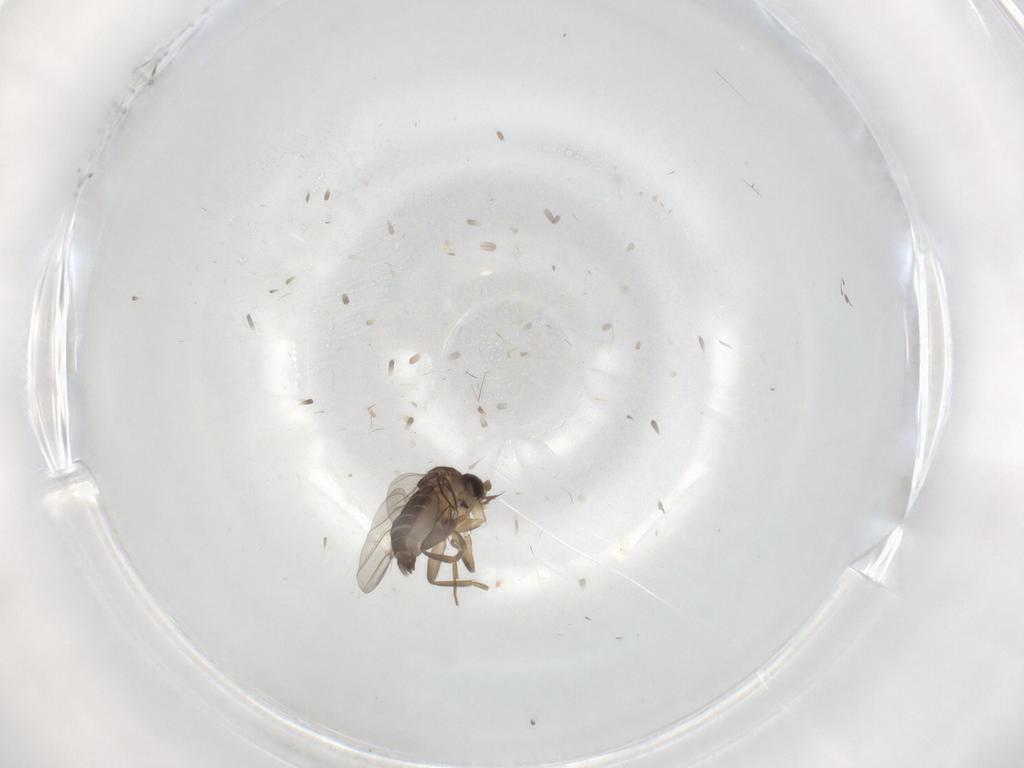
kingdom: Animalia
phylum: Arthropoda
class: Insecta
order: Diptera
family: Phoridae
